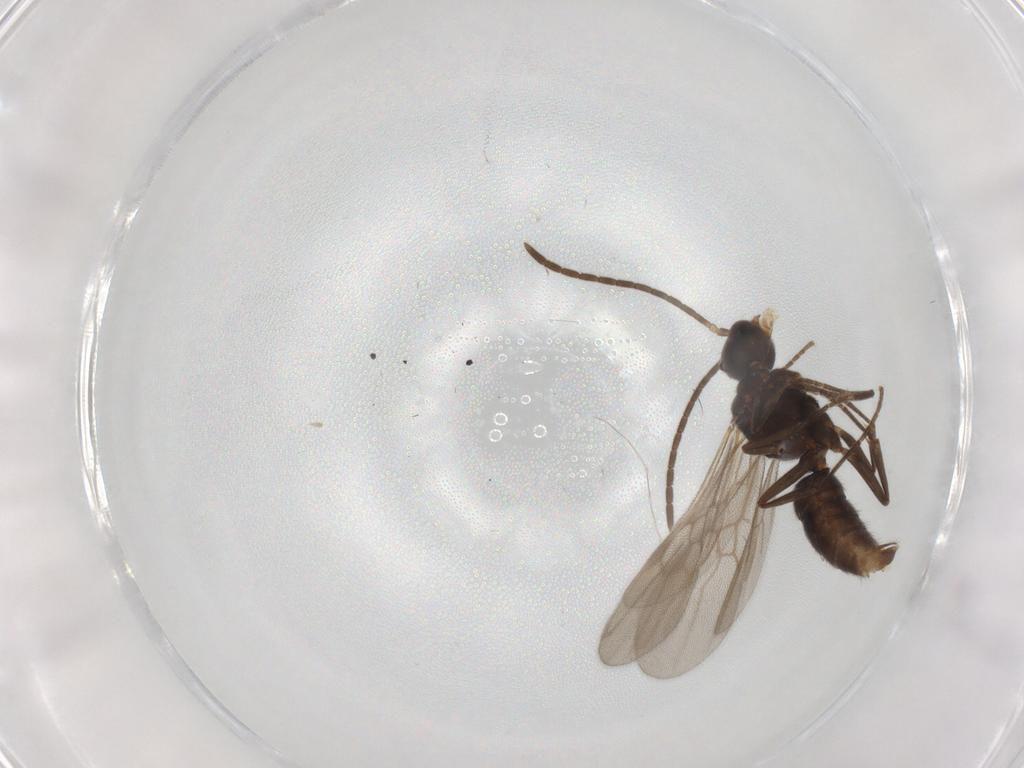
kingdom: Animalia
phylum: Arthropoda
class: Insecta
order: Hymenoptera
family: Formicidae
